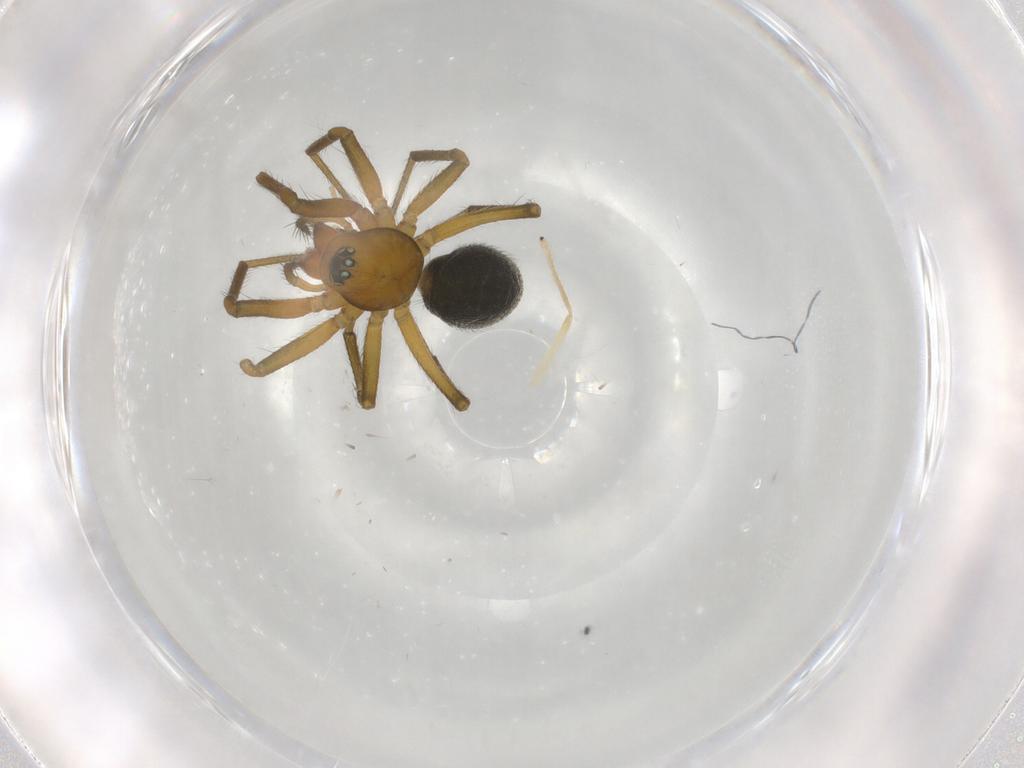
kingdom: Animalia
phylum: Arthropoda
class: Arachnida
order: Araneae
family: Linyphiidae
